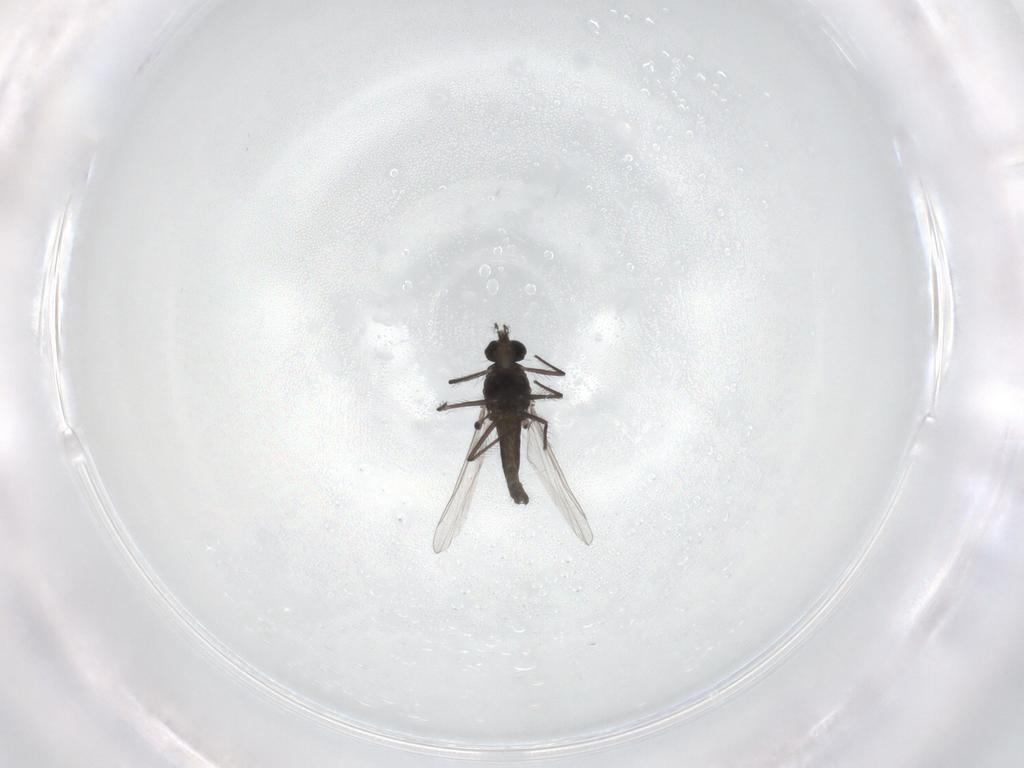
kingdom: Animalia
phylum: Arthropoda
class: Insecta
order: Diptera
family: Chironomidae
